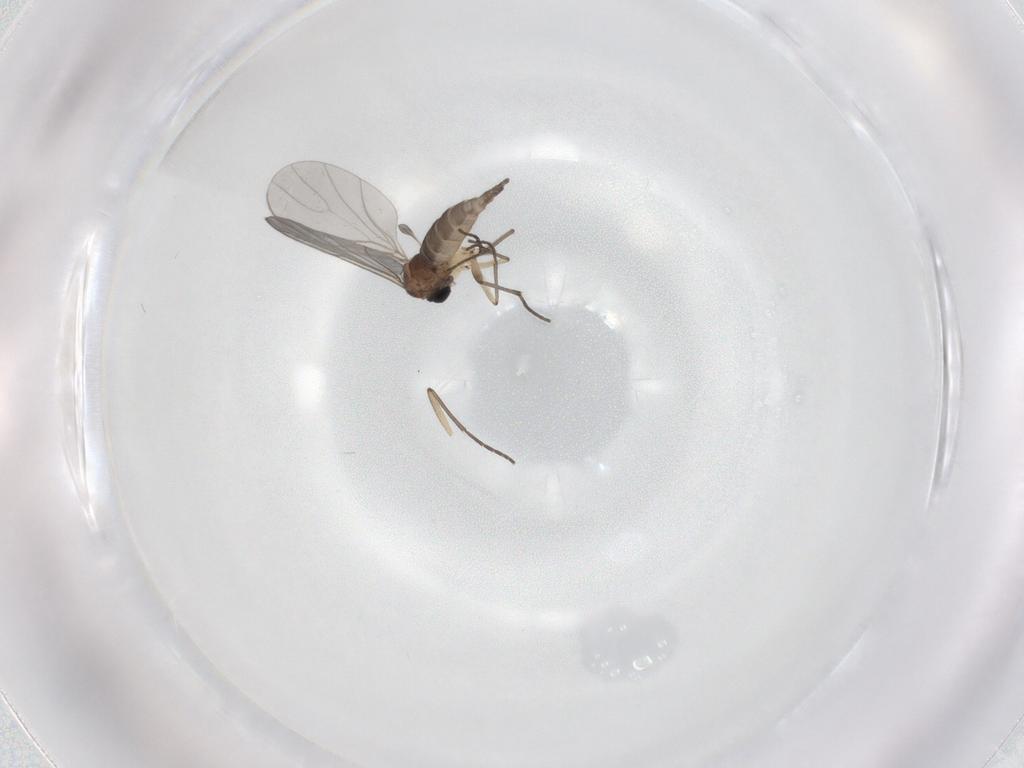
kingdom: Animalia
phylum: Arthropoda
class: Insecta
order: Diptera
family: Sciaridae
